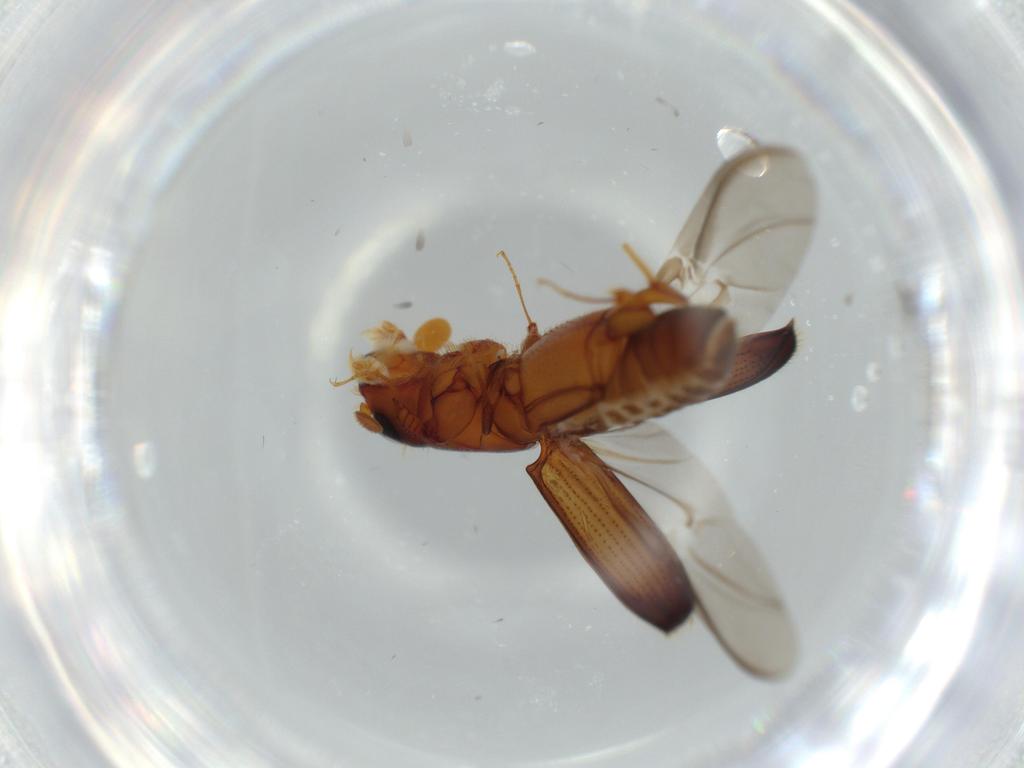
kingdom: Animalia
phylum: Arthropoda
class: Insecta
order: Coleoptera
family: Curculionidae
